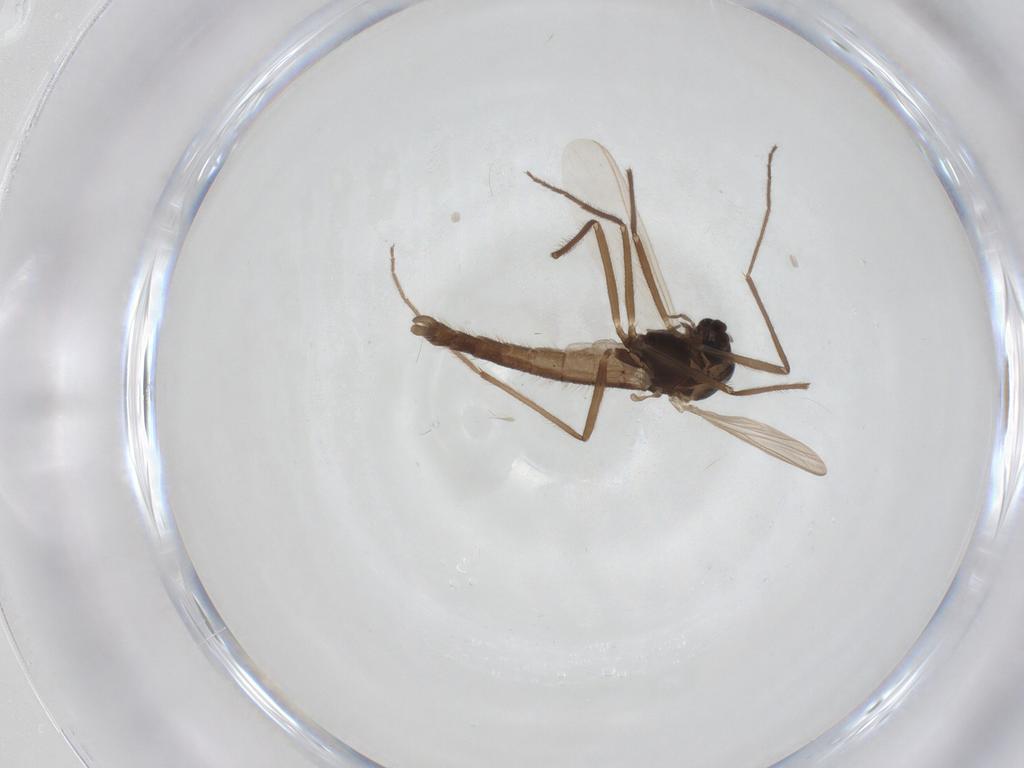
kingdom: Animalia
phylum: Arthropoda
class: Insecta
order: Diptera
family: Chironomidae
